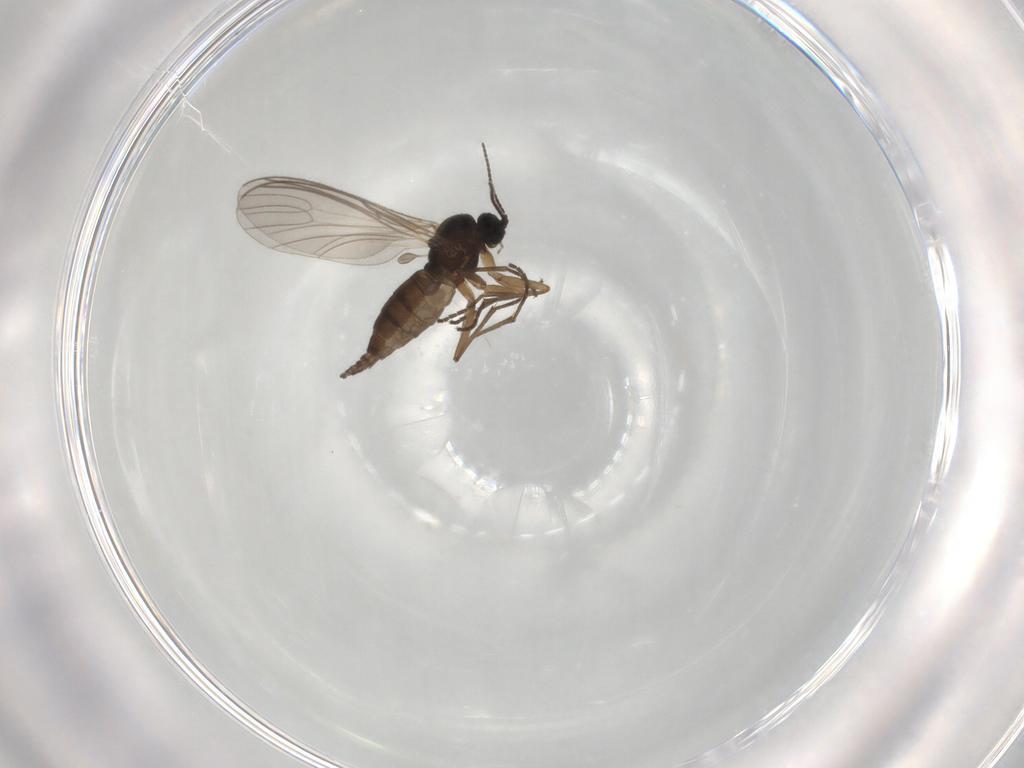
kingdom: Animalia
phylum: Arthropoda
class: Insecta
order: Diptera
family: Sciaridae
